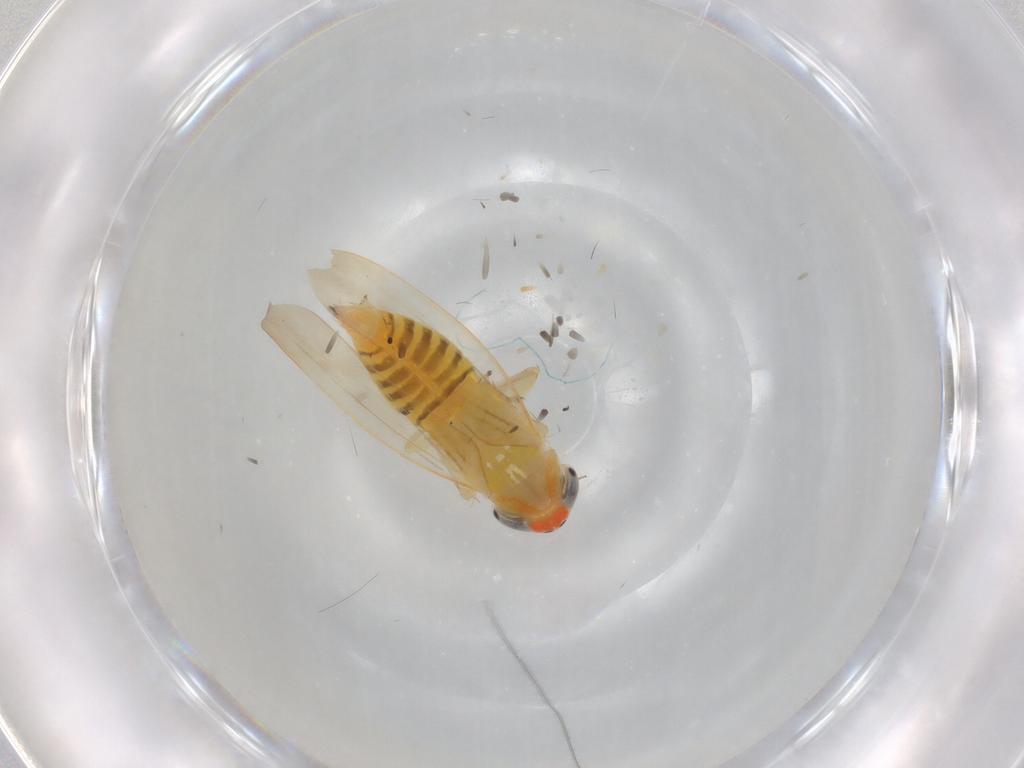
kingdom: Animalia
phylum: Arthropoda
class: Insecta
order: Hemiptera
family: Cicadellidae
